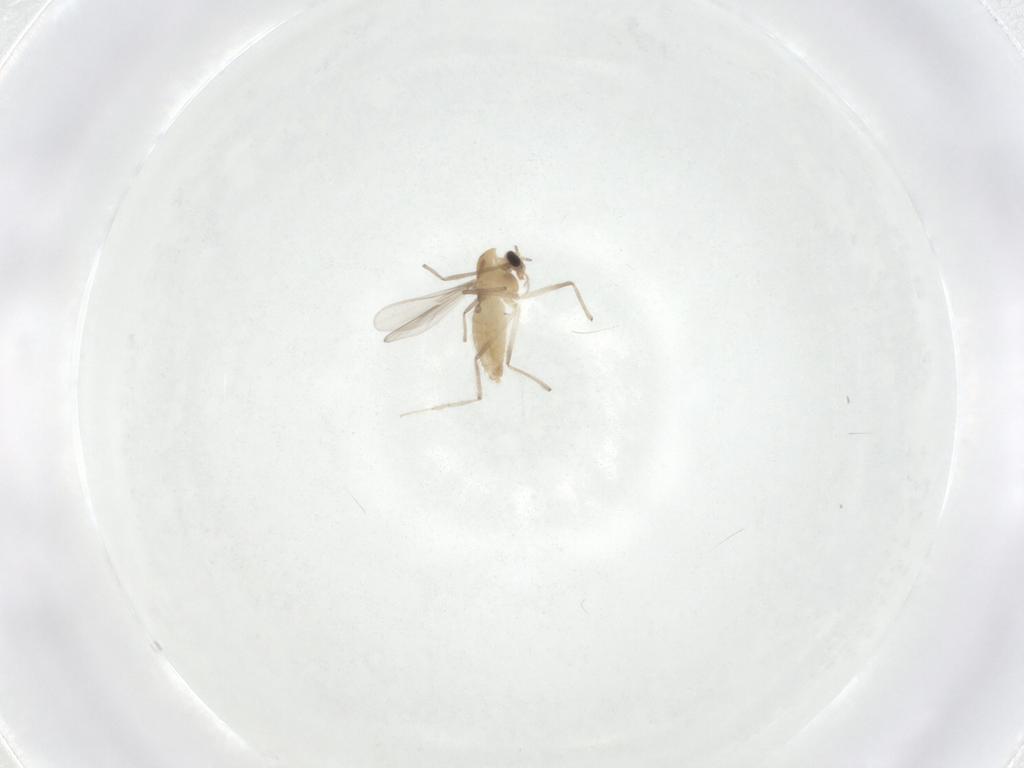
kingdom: Animalia
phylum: Arthropoda
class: Insecta
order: Diptera
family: Chironomidae
